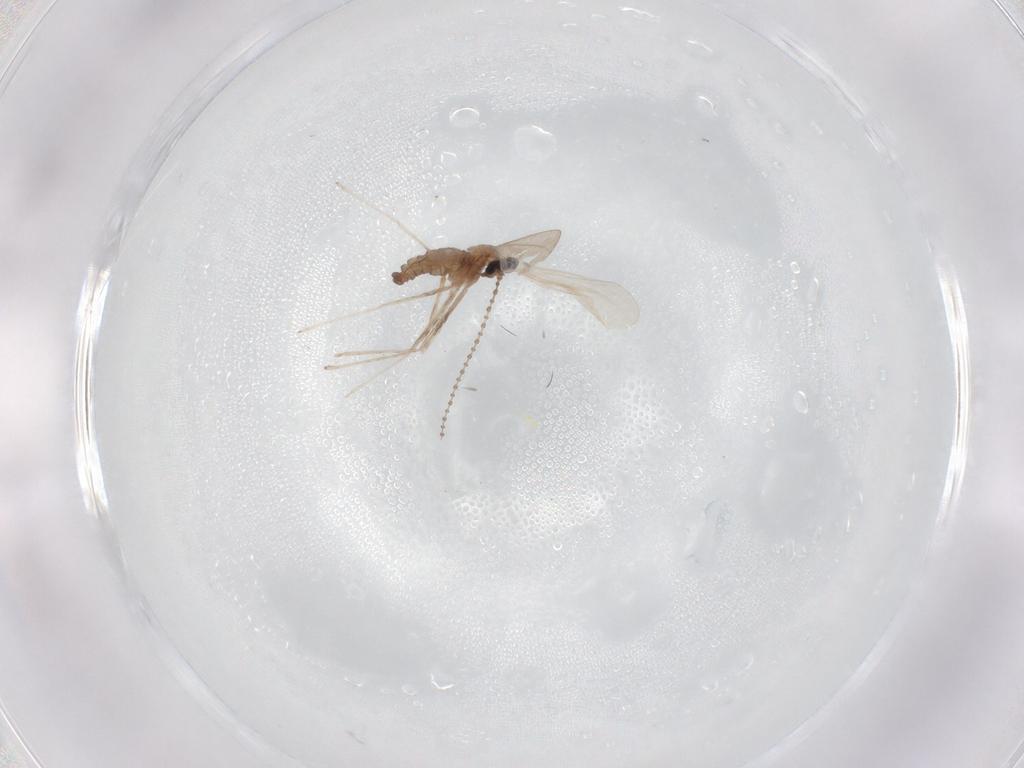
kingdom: Animalia
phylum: Arthropoda
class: Insecta
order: Diptera
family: Cecidomyiidae
